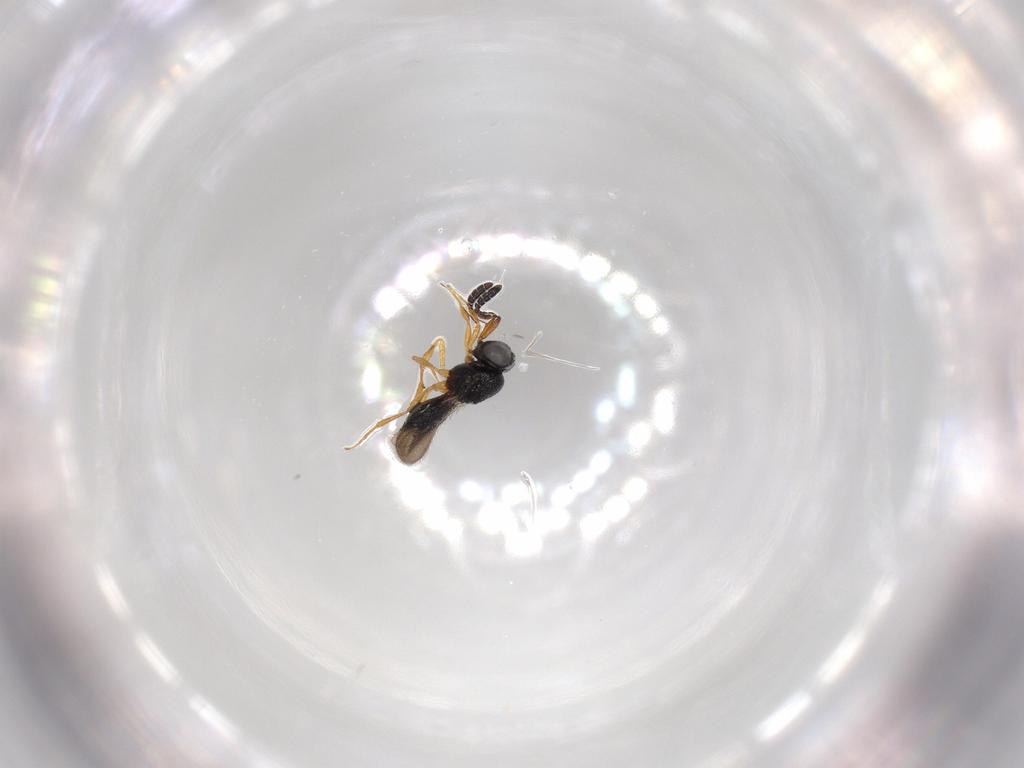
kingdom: Animalia
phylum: Arthropoda
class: Insecta
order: Hymenoptera
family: Scelionidae
